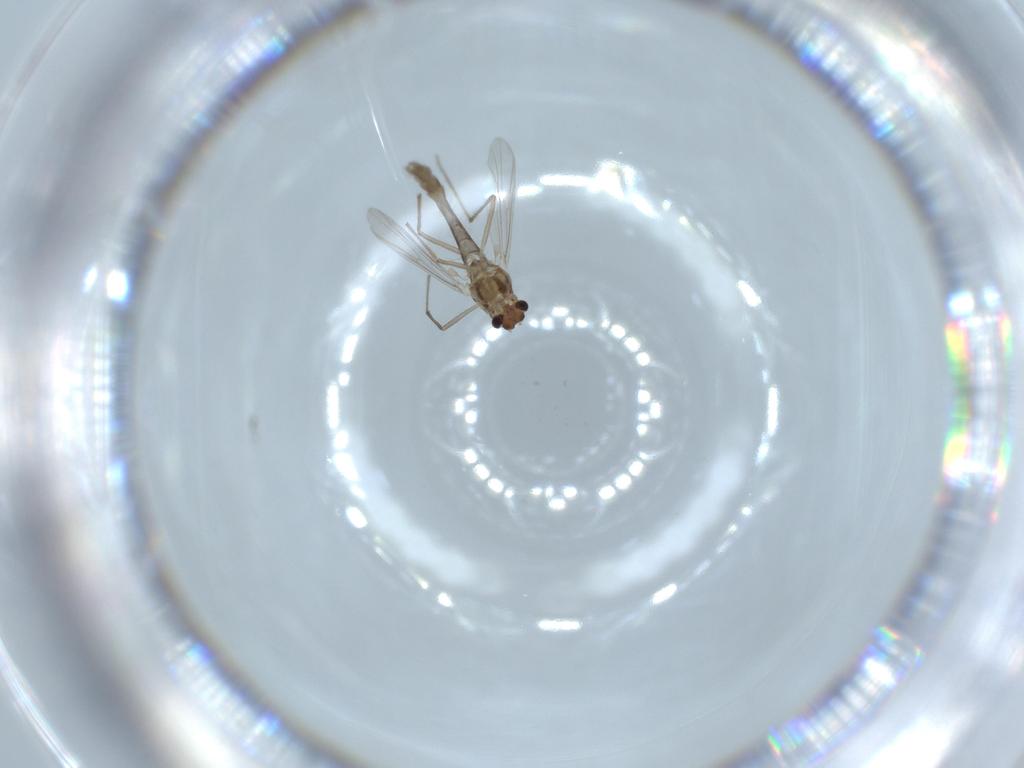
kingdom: Animalia
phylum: Arthropoda
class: Insecta
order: Diptera
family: Chironomidae
